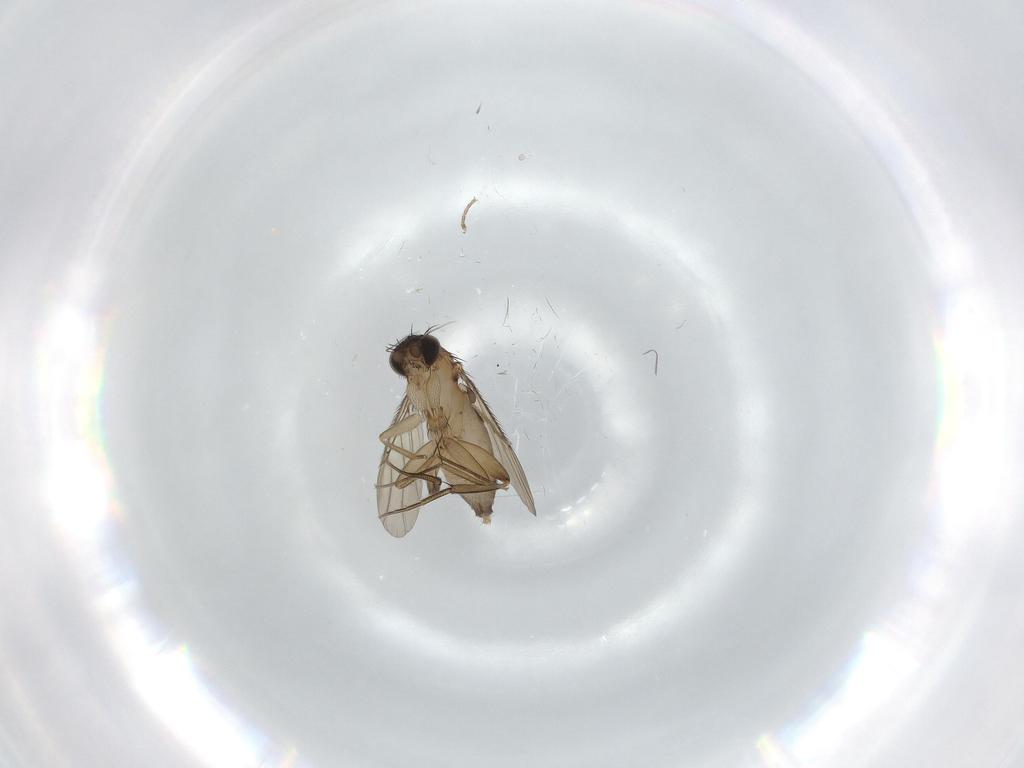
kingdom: Animalia
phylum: Arthropoda
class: Insecta
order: Diptera
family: Phoridae
